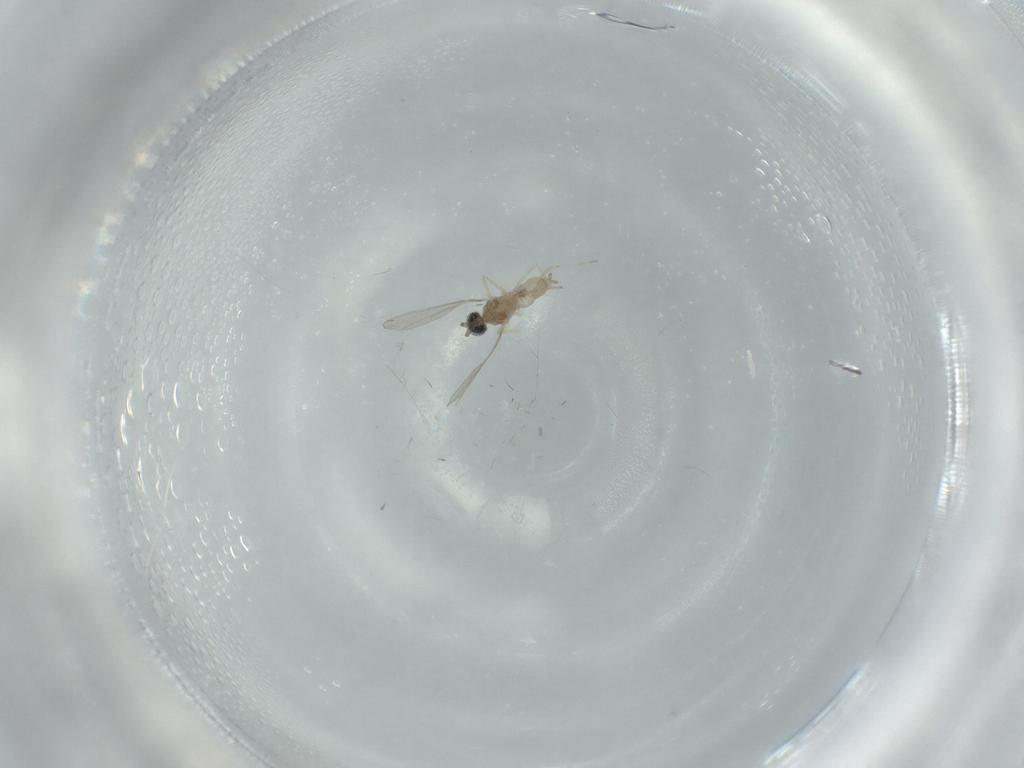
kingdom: Animalia
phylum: Arthropoda
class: Insecta
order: Diptera
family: Cecidomyiidae
